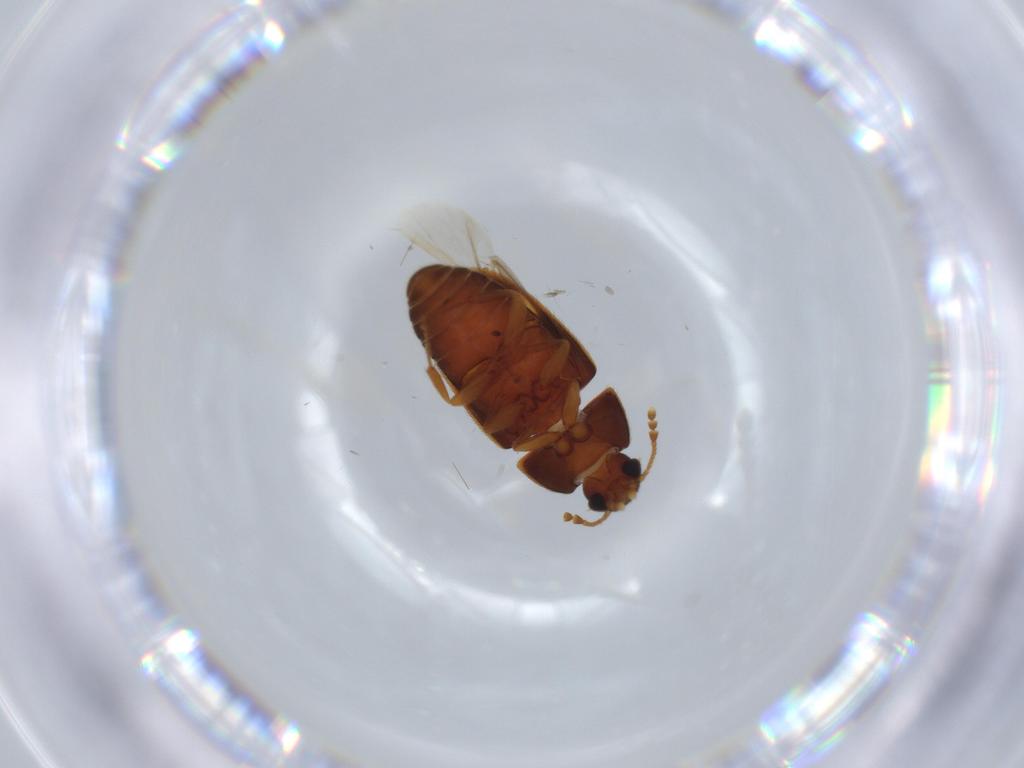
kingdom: Animalia
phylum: Arthropoda
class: Insecta
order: Coleoptera
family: Mycetophagidae
